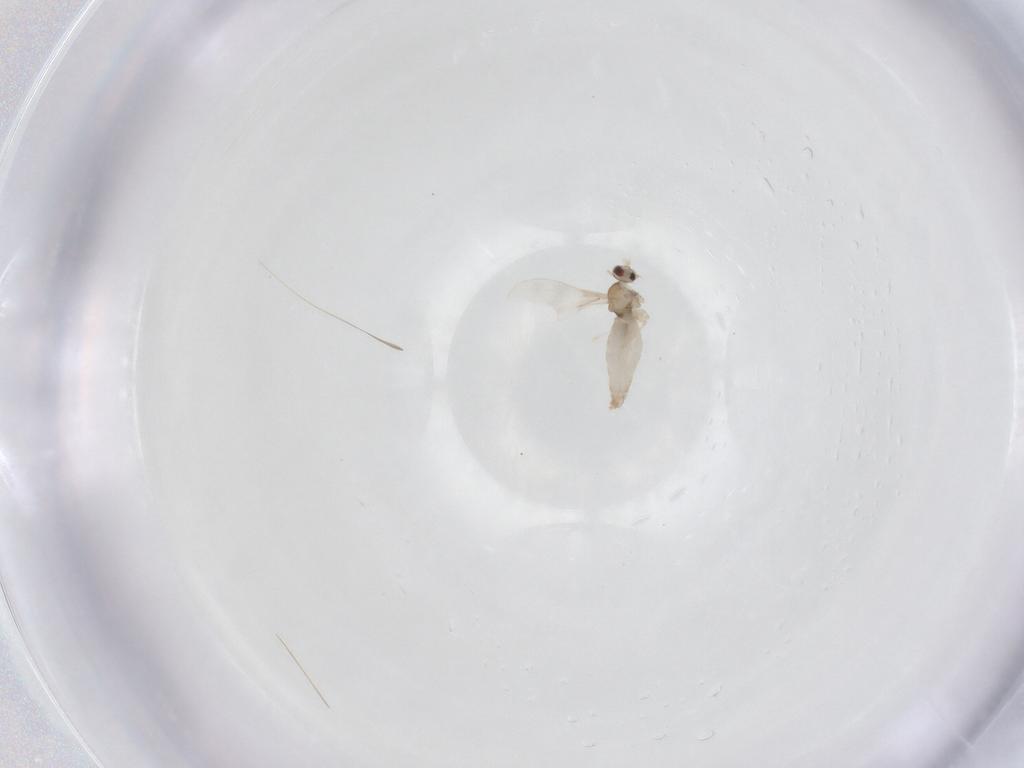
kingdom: Animalia
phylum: Arthropoda
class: Insecta
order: Diptera
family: Cecidomyiidae
